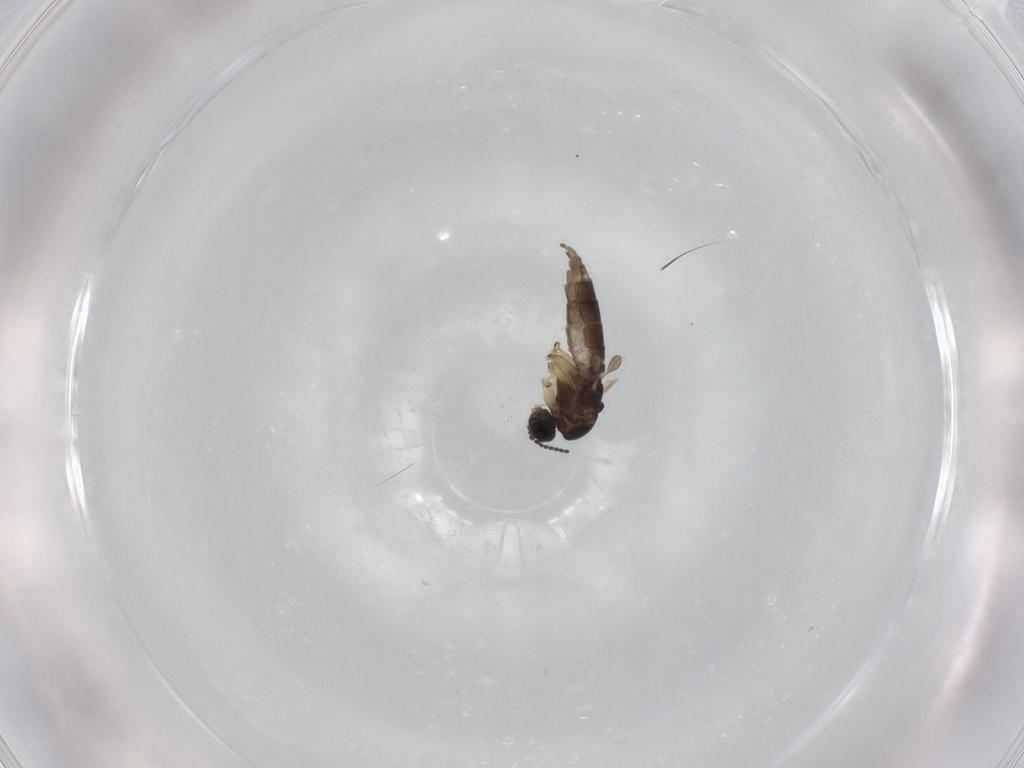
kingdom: Animalia
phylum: Arthropoda
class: Insecta
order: Diptera
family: Sciaridae
